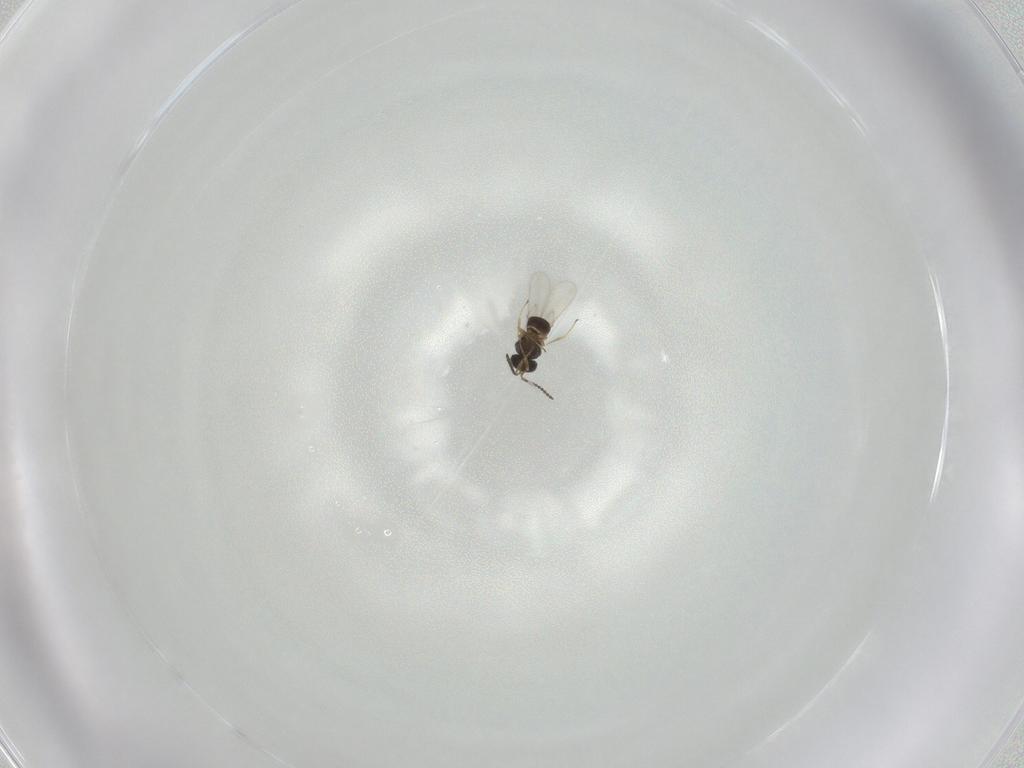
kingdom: Animalia
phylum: Arthropoda
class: Insecta
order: Hymenoptera
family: Scelionidae
